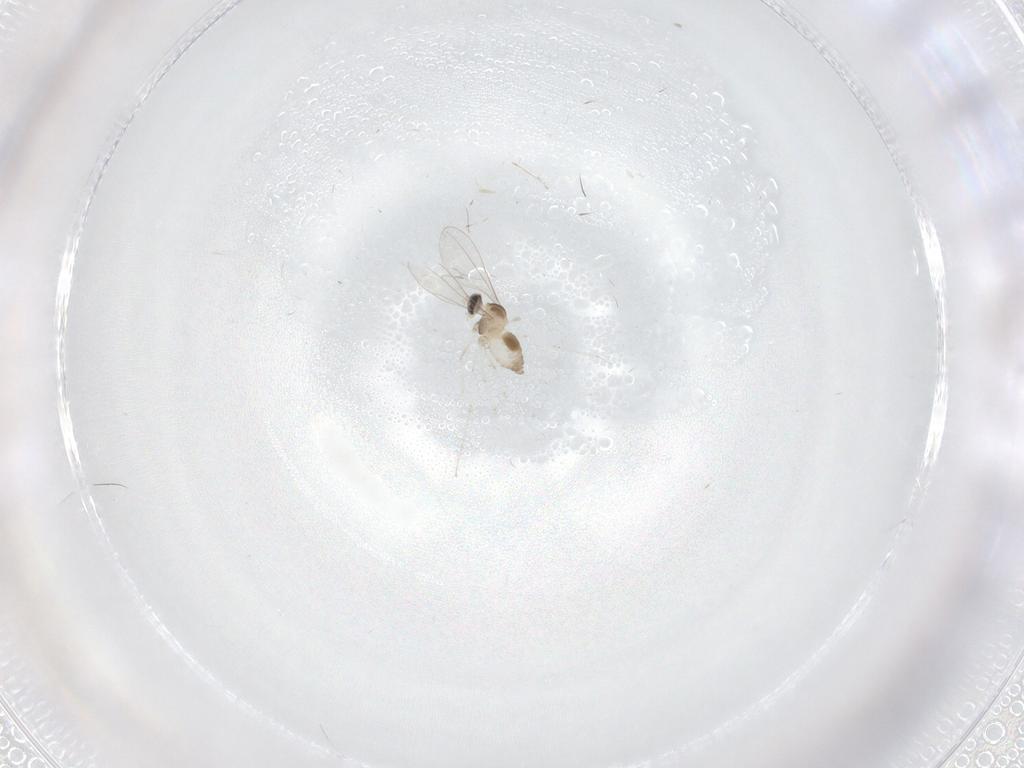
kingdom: Animalia
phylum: Arthropoda
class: Insecta
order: Diptera
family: Cecidomyiidae
